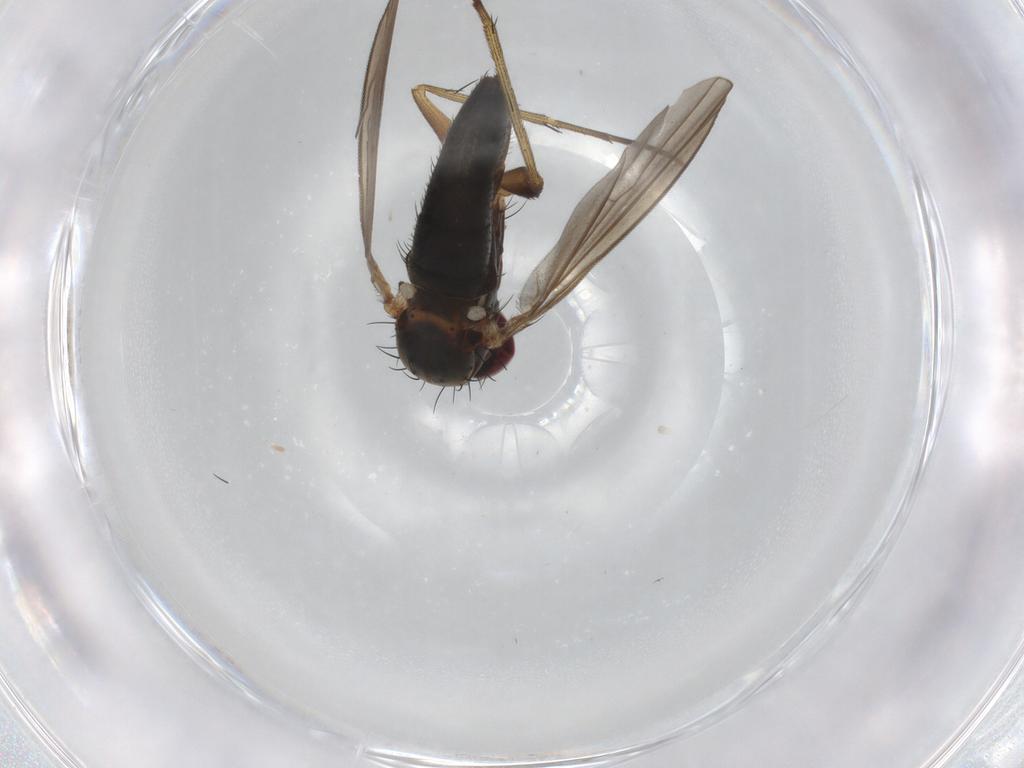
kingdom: Animalia
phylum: Arthropoda
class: Insecta
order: Diptera
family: Dolichopodidae
